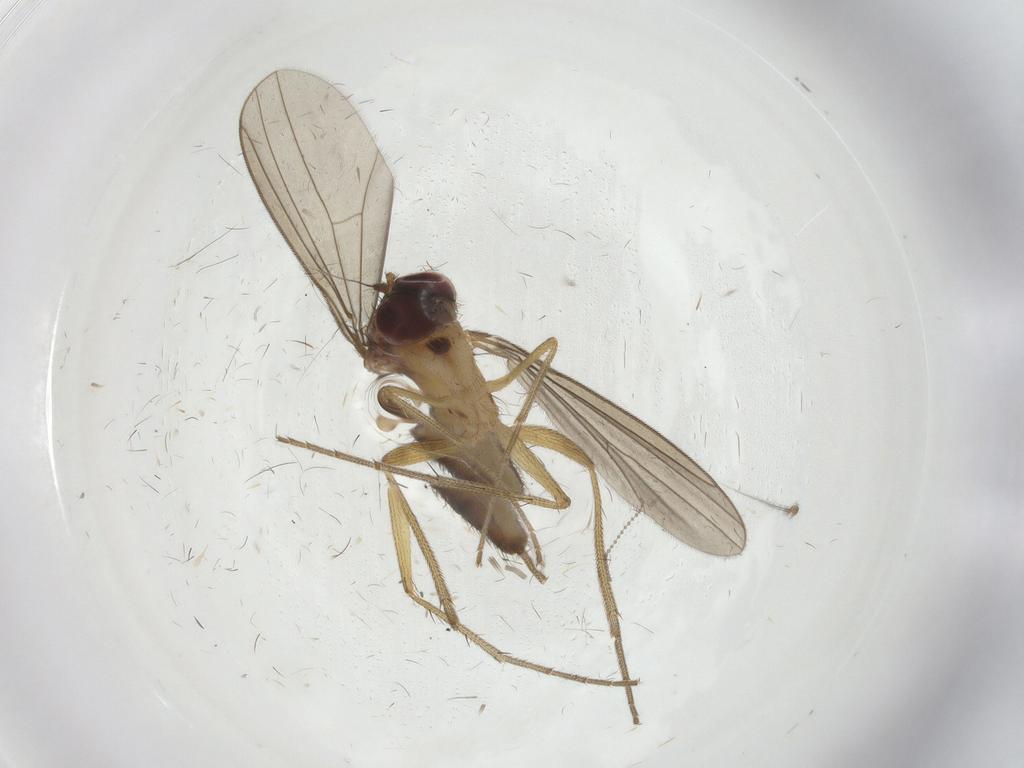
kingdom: Animalia
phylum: Arthropoda
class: Insecta
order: Diptera
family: Dolichopodidae
